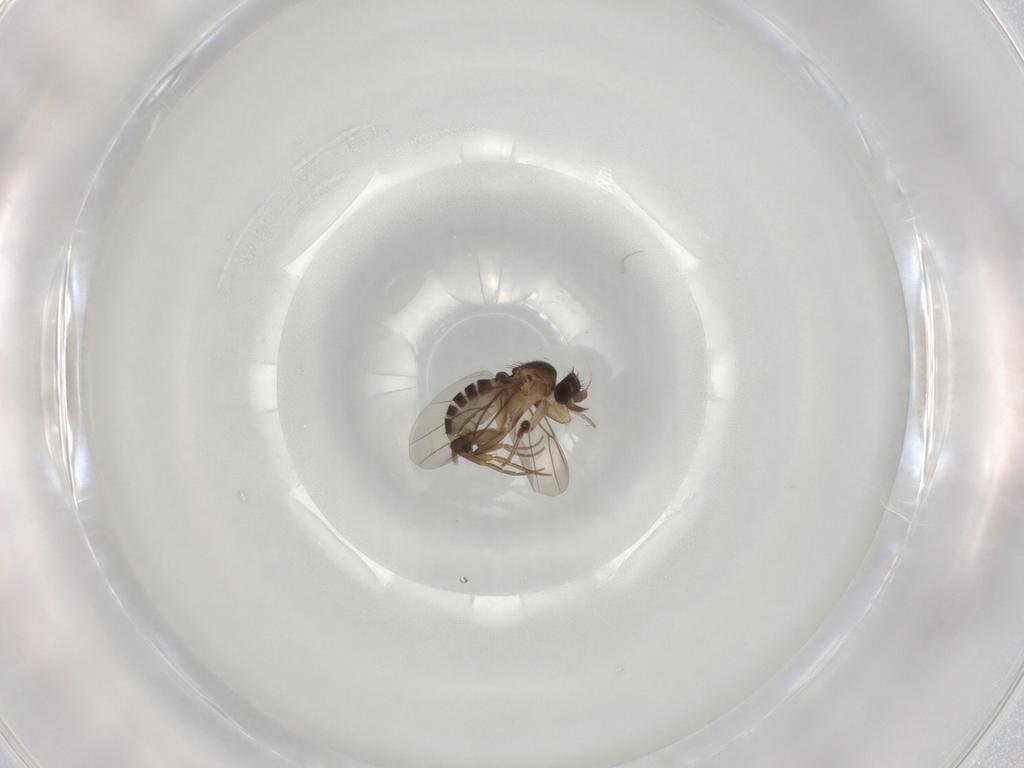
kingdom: Animalia
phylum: Arthropoda
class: Insecta
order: Diptera
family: Phoridae
